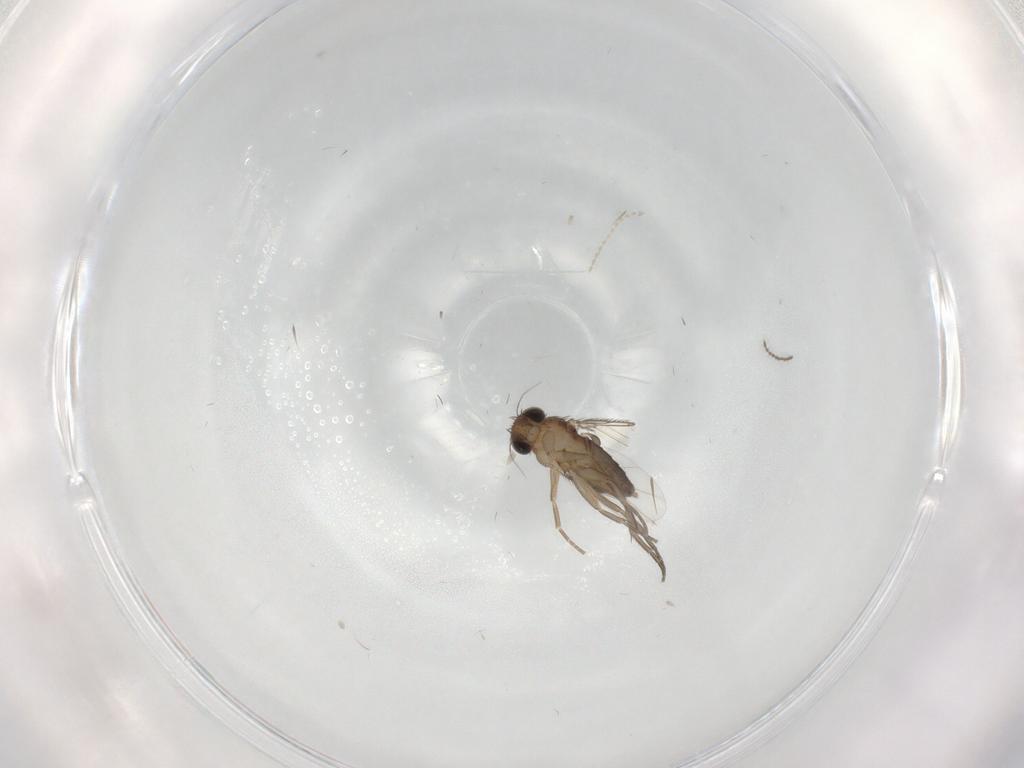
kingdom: Animalia
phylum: Arthropoda
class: Insecta
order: Diptera
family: Phoridae
